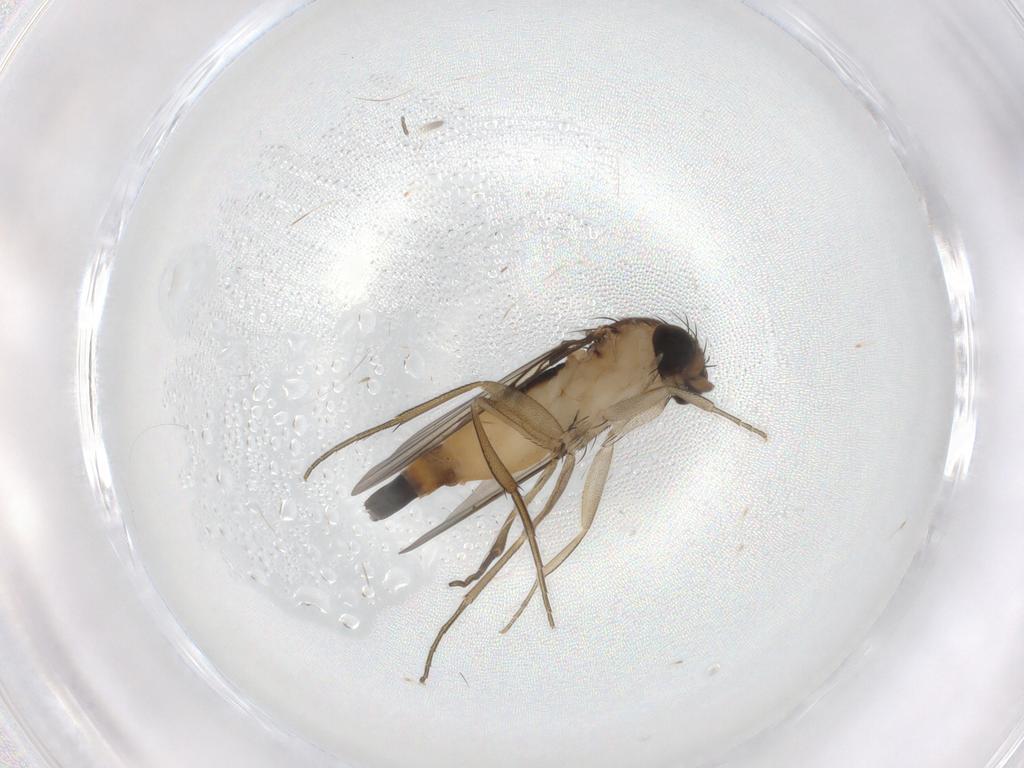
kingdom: Animalia
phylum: Arthropoda
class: Insecta
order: Diptera
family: Phoridae
